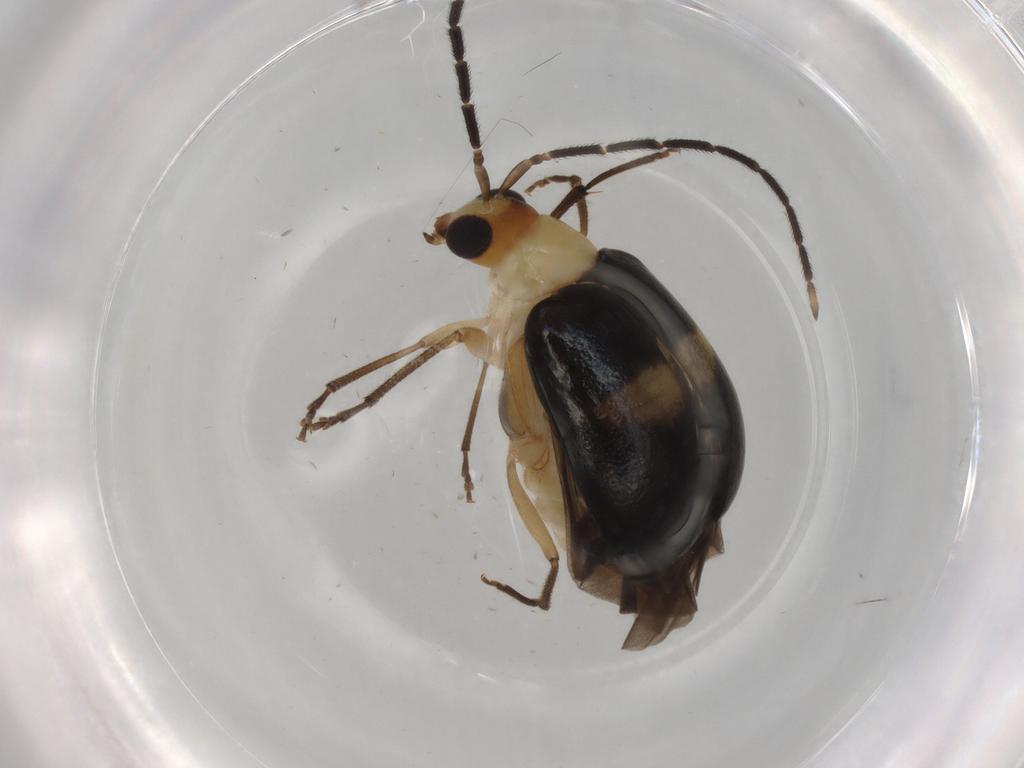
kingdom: Animalia
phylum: Arthropoda
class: Insecta
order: Coleoptera
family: Chrysomelidae
